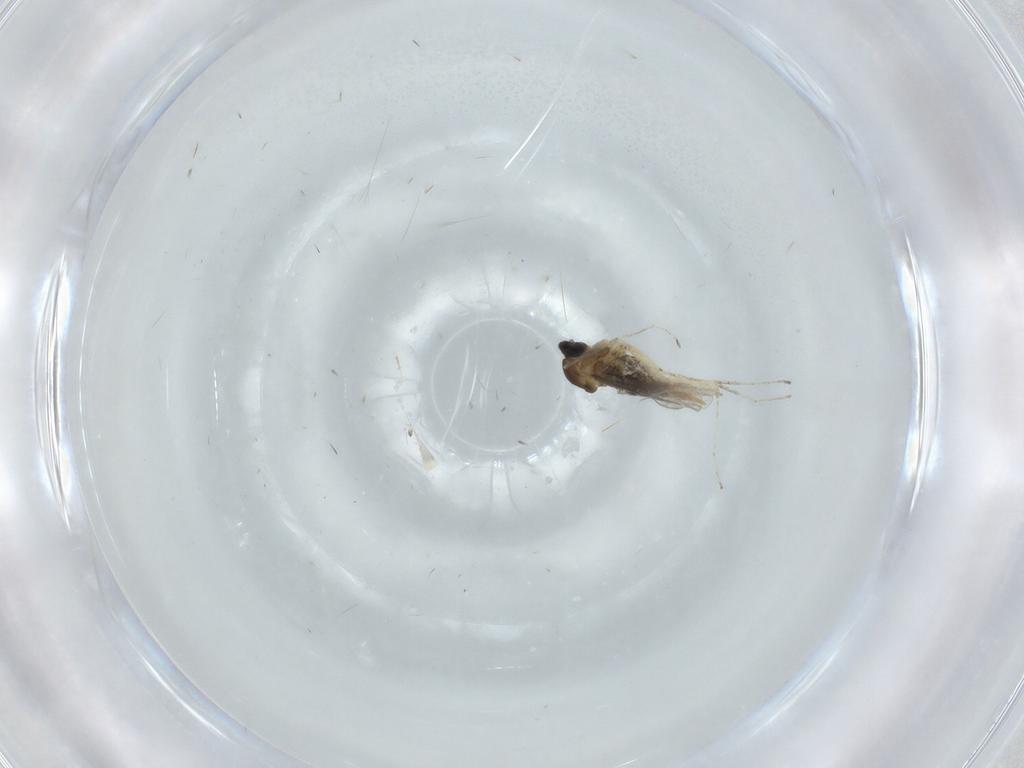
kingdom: Animalia
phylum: Arthropoda
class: Insecta
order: Diptera
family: Cecidomyiidae
